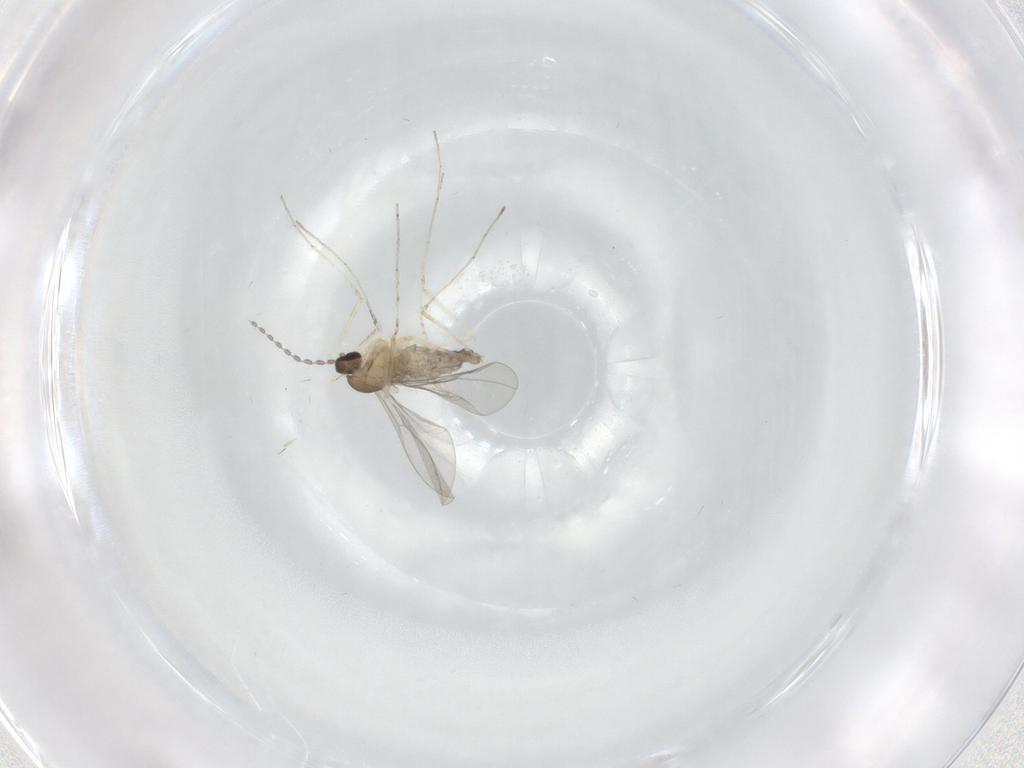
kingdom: Animalia
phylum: Arthropoda
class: Insecta
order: Diptera
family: Cecidomyiidae
